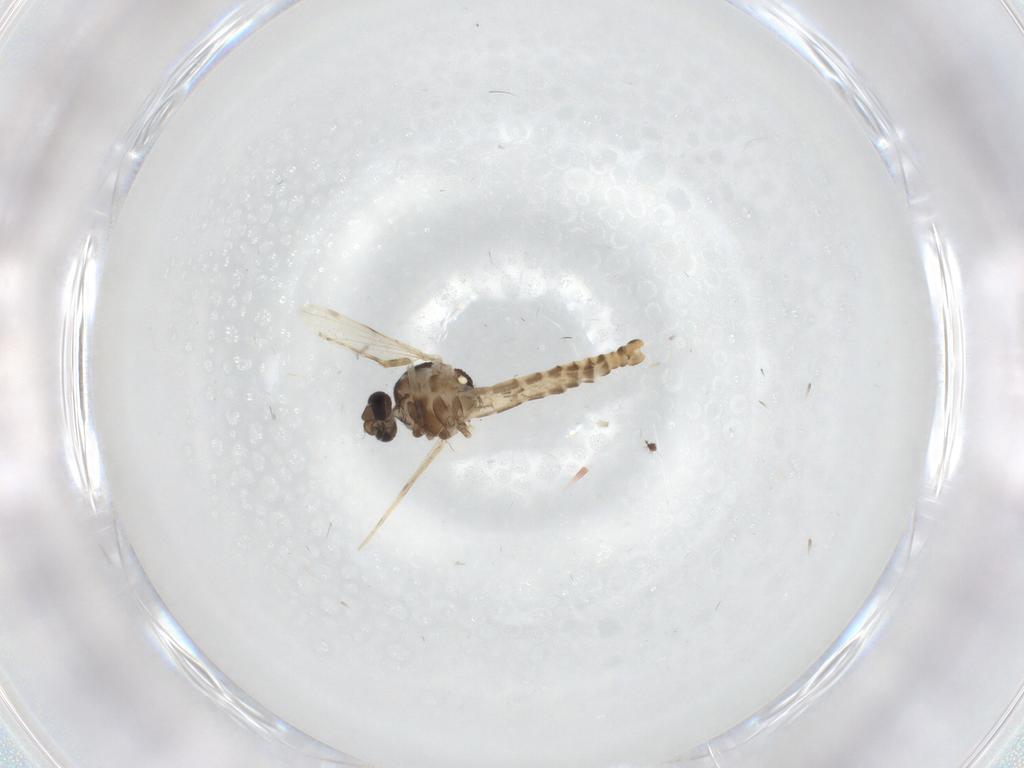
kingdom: Animalia
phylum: Arthropoda
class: Insecta
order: Diptera
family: Ceratopogonidae
